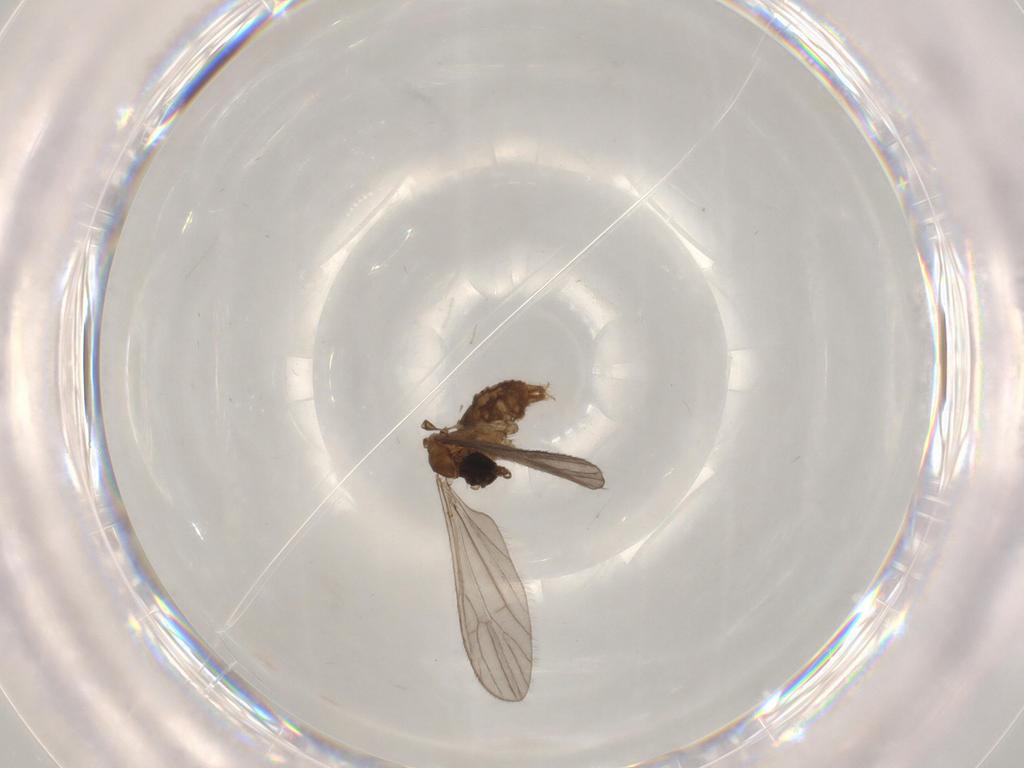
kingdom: Animalia
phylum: Arthropoda
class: Insecta
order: Diptera
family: Limoniidae
